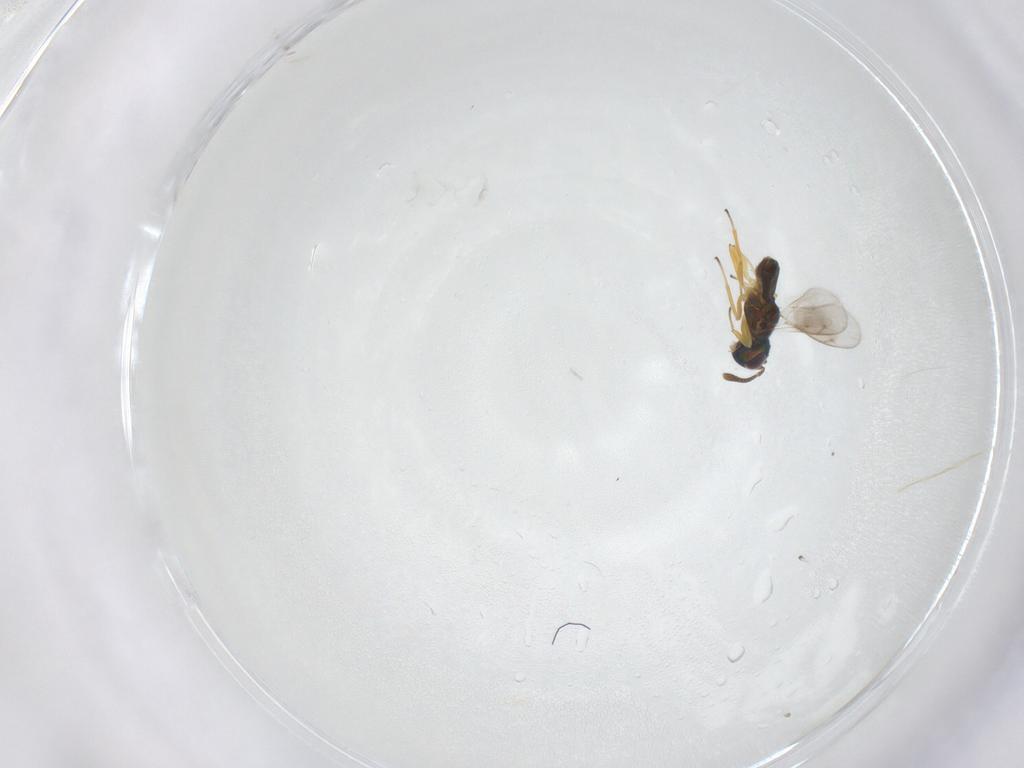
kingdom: Animalia
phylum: Arthropoda
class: Insecta
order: Hymenoptera
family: Eupelmidae
